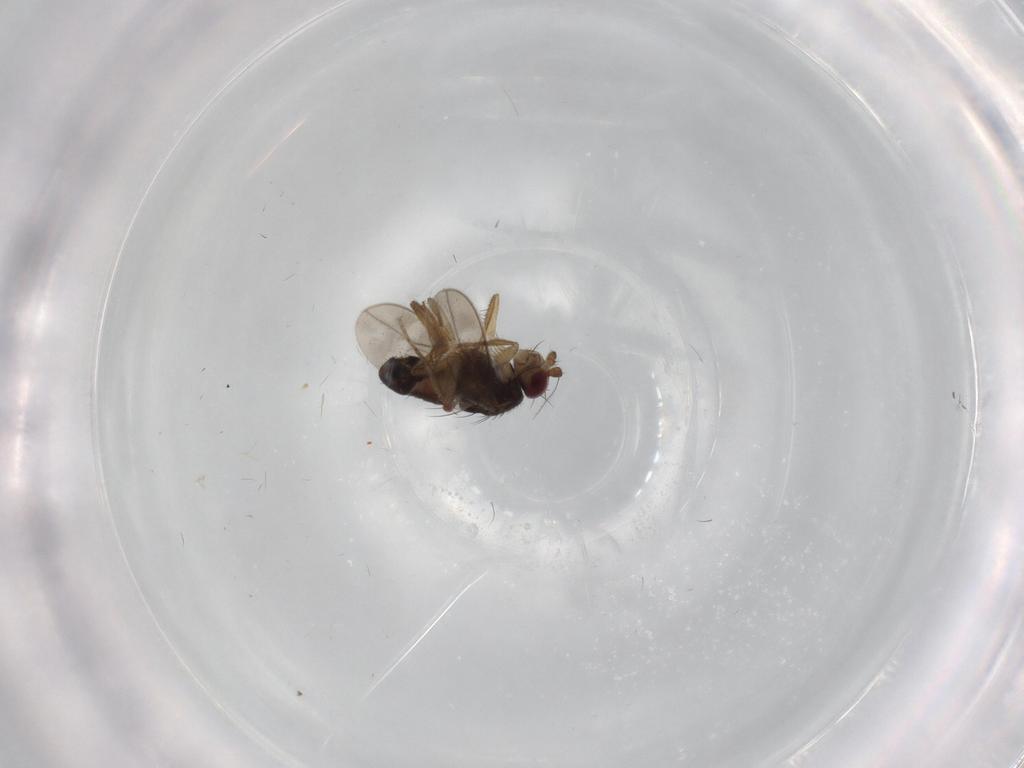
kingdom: Animalia
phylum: Arthropoda
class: Insecta
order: Diptera
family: Sphaeroceridae
